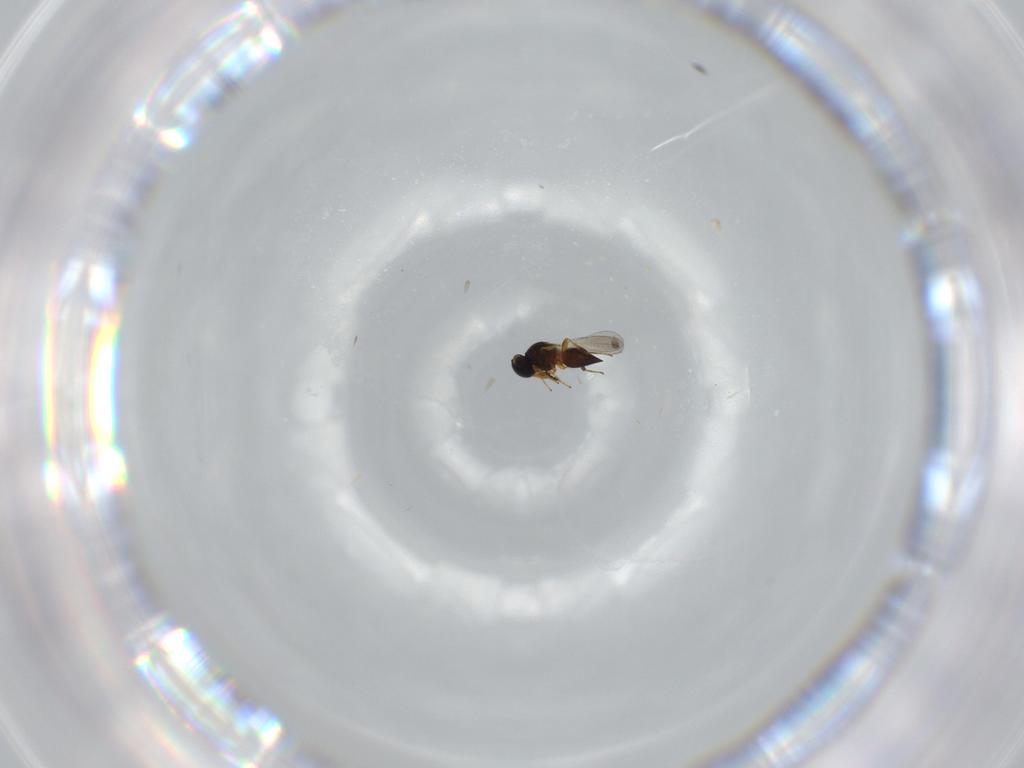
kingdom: Animalia
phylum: Arthropoda
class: Insecta
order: Hymenoptera
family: Platygastridae
